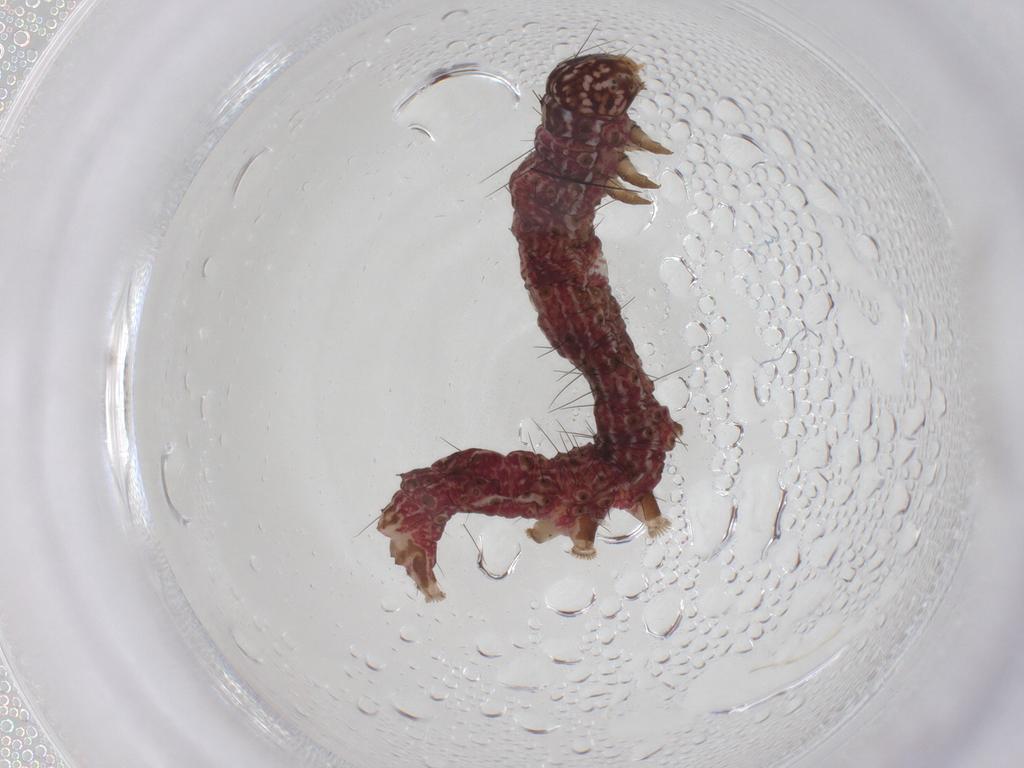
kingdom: Animalia
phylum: Arthropoda
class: Insecta
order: Lepidoptera
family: Erebidae
